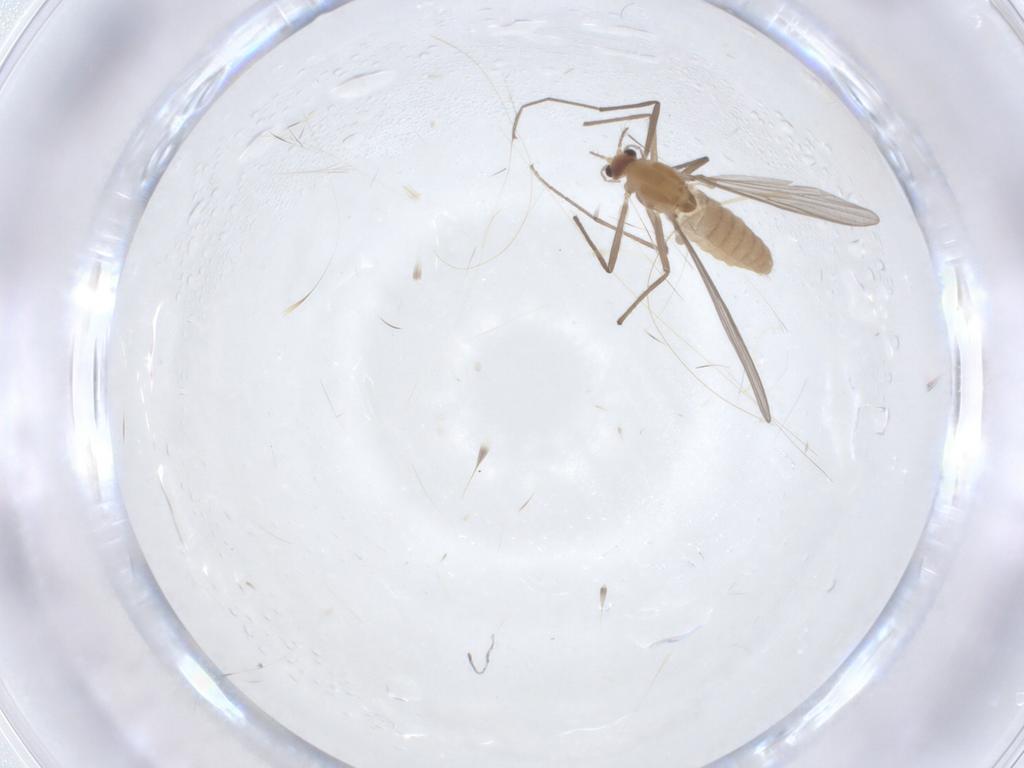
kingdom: Animalia
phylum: Arthropoda
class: Insecta
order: Diptera
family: Chironomidae
